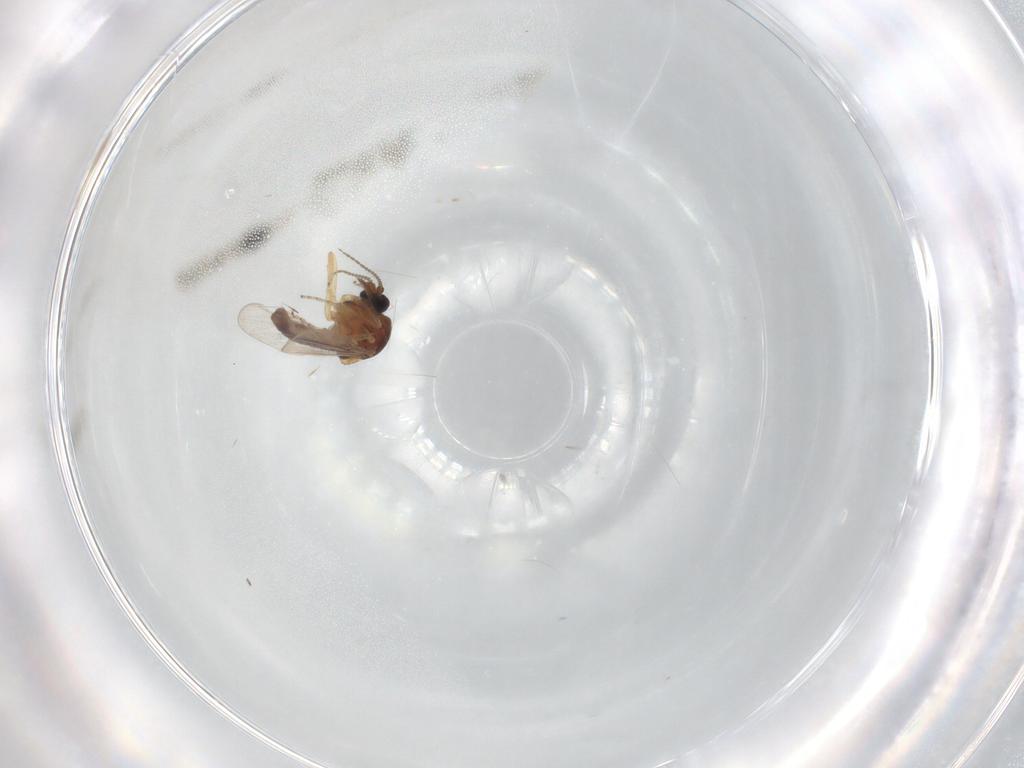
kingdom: Animalia
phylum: Arthropoda
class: Insecta
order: Diptera
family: Ceratopogonidae
